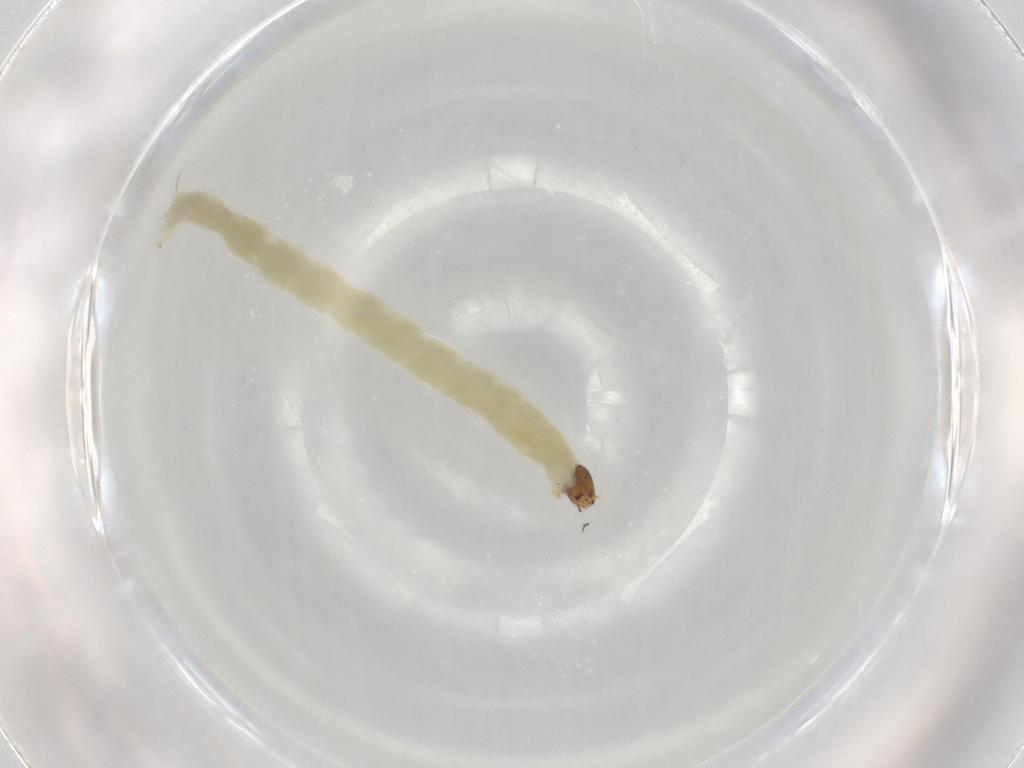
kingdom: Animalia
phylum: Arthropoda
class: Insecta
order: Diptera
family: Chironomidae
